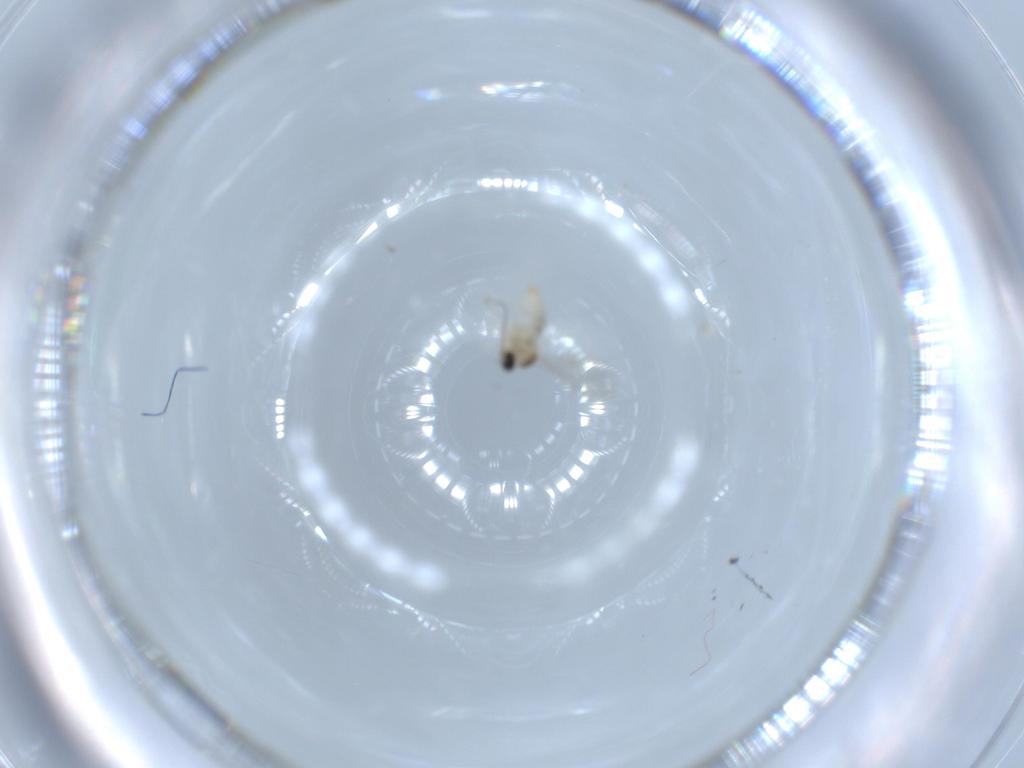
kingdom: Animalia
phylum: Arthropoda
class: Insecta
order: Diptera
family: Cecidomyiidae
